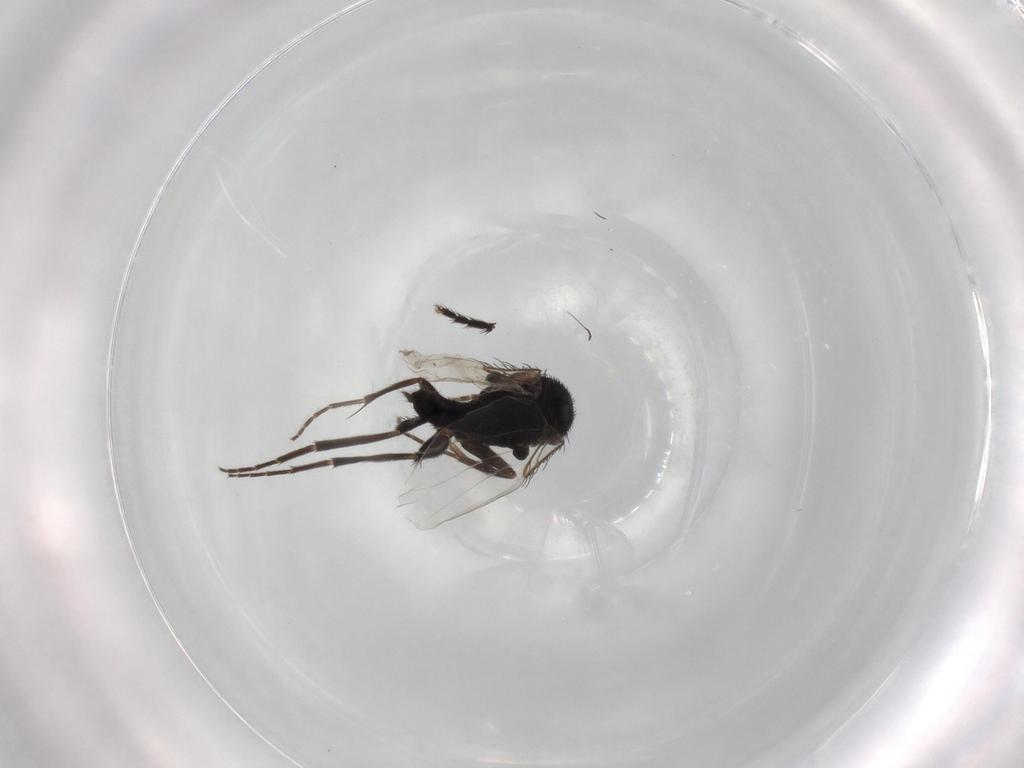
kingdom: Animalia
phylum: Arthropoda
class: Insecta
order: Diptera
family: Phoridae
